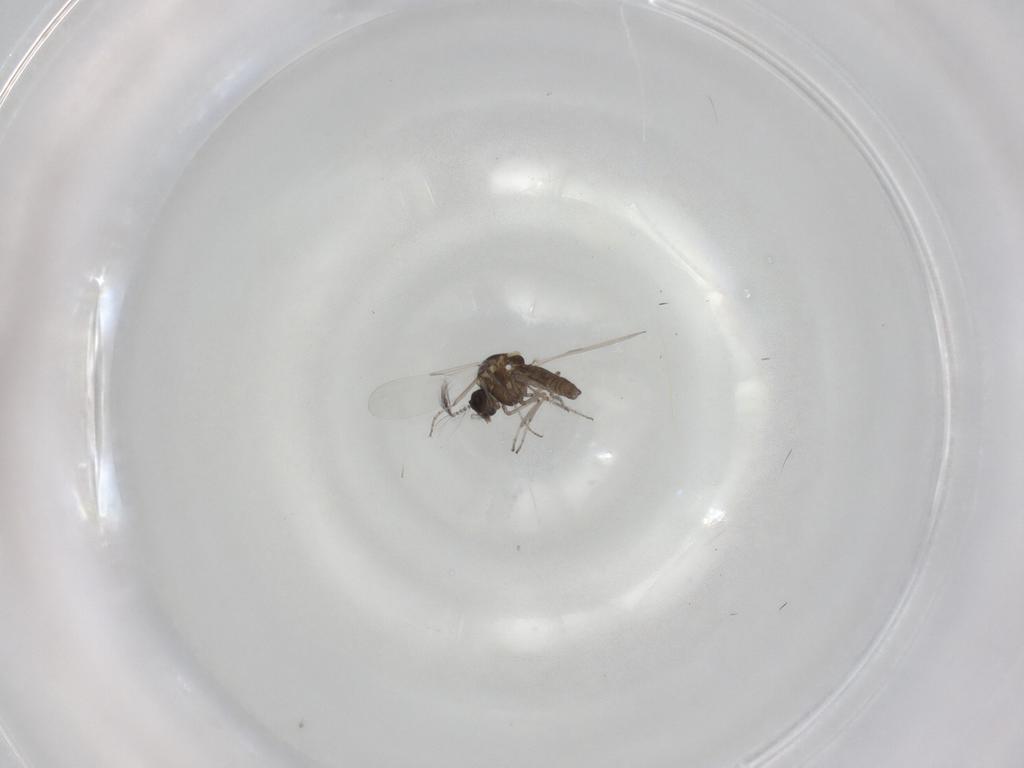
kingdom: Animalia
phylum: Arthropoda
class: Insecta
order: Diptera
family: Ceratopogonidae
